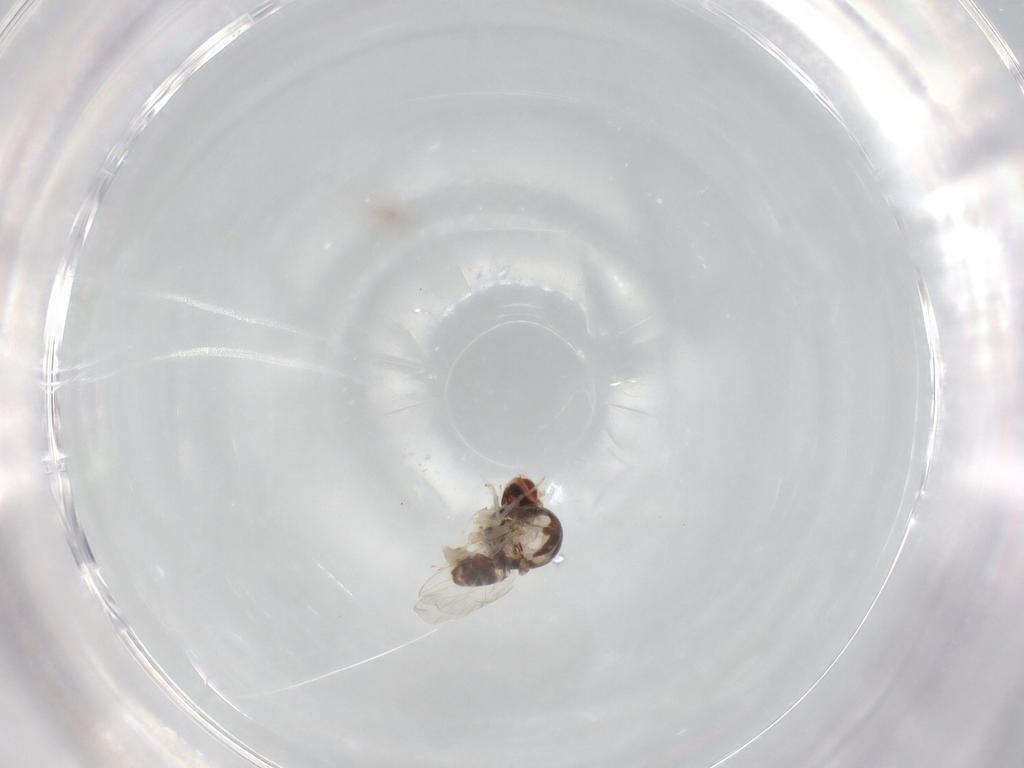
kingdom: Animalia
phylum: Arthropoda
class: Insecta
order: Diptera
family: Bombyliidae
